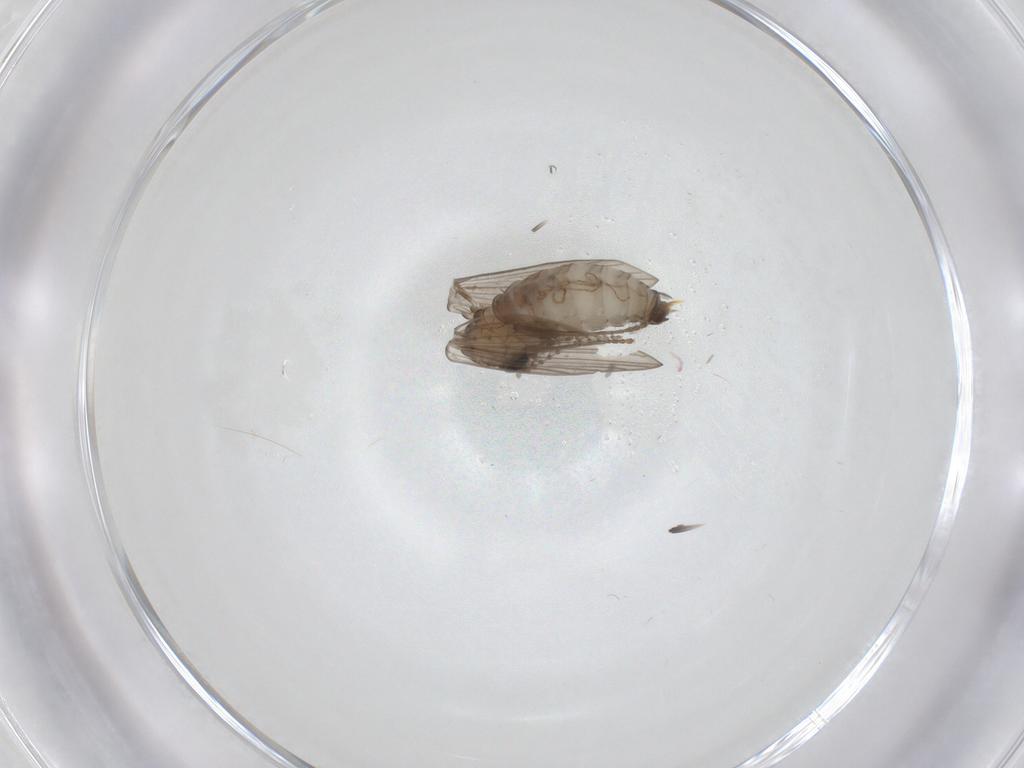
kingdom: Animalia
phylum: Arthropoda
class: Insecta
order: Diptera
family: Psychodidae
